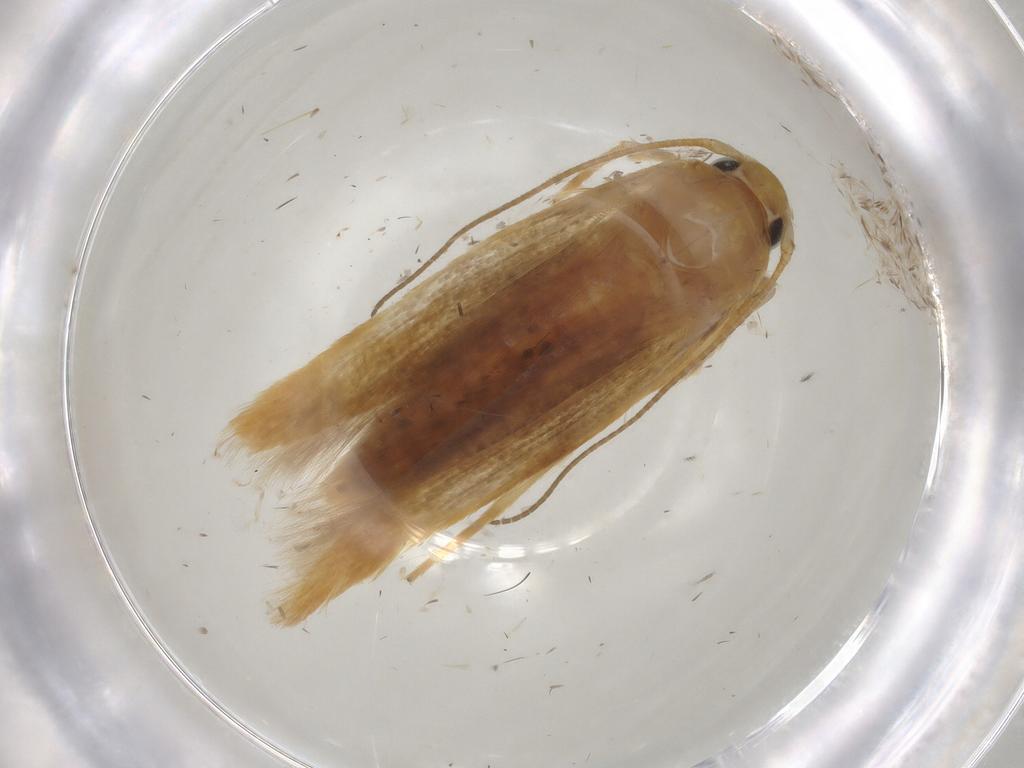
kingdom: Animalia
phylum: Arthropoda
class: Insecta
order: Lepidoptera
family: Stathmopodidae
